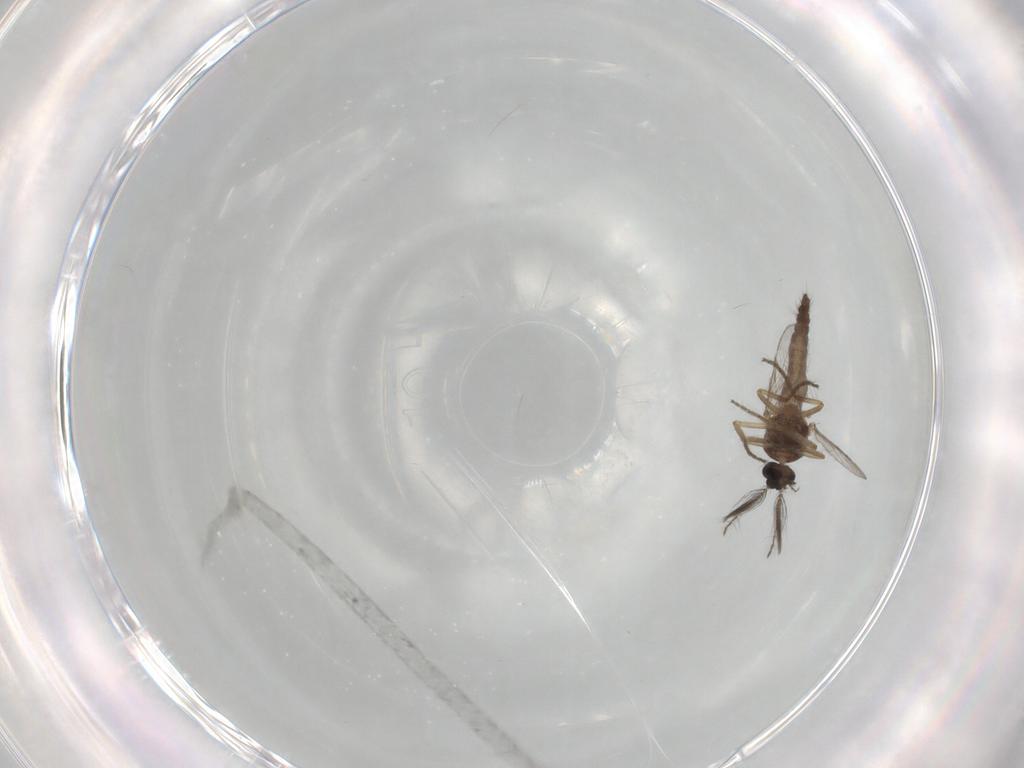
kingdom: Animalia
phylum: Arthropoda
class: Insecta
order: Diptera
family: Ceratopogonidae
